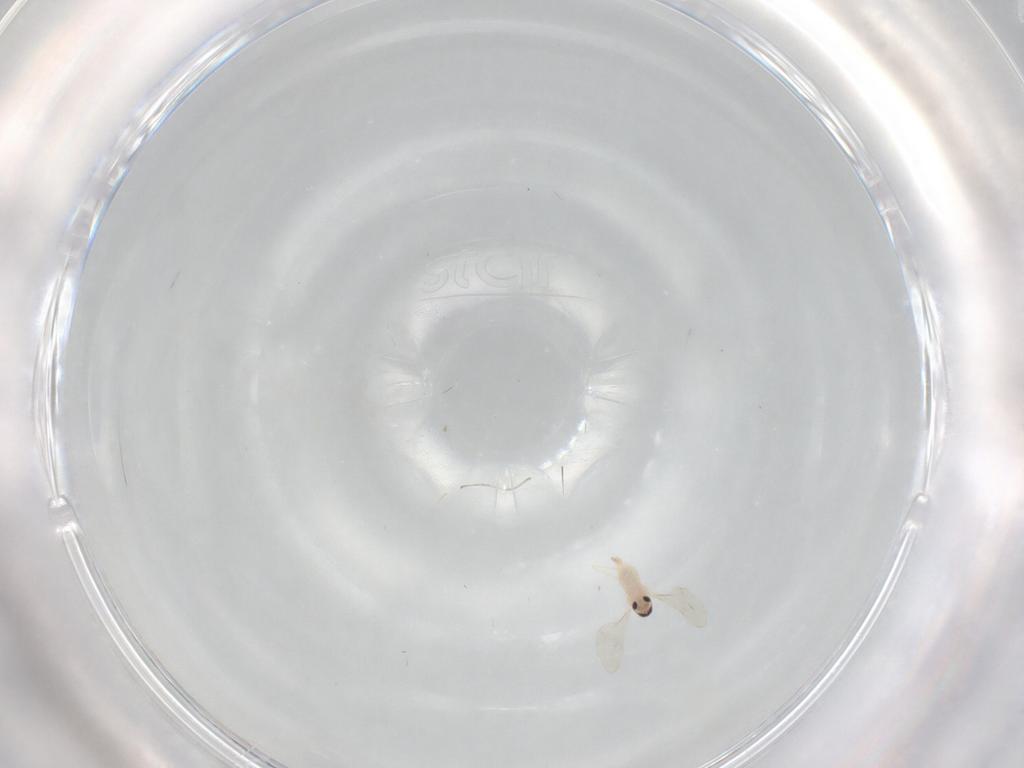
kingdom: Animalia
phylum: Arthropoda
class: Insecta
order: Diptera
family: Cecidomyiidae
